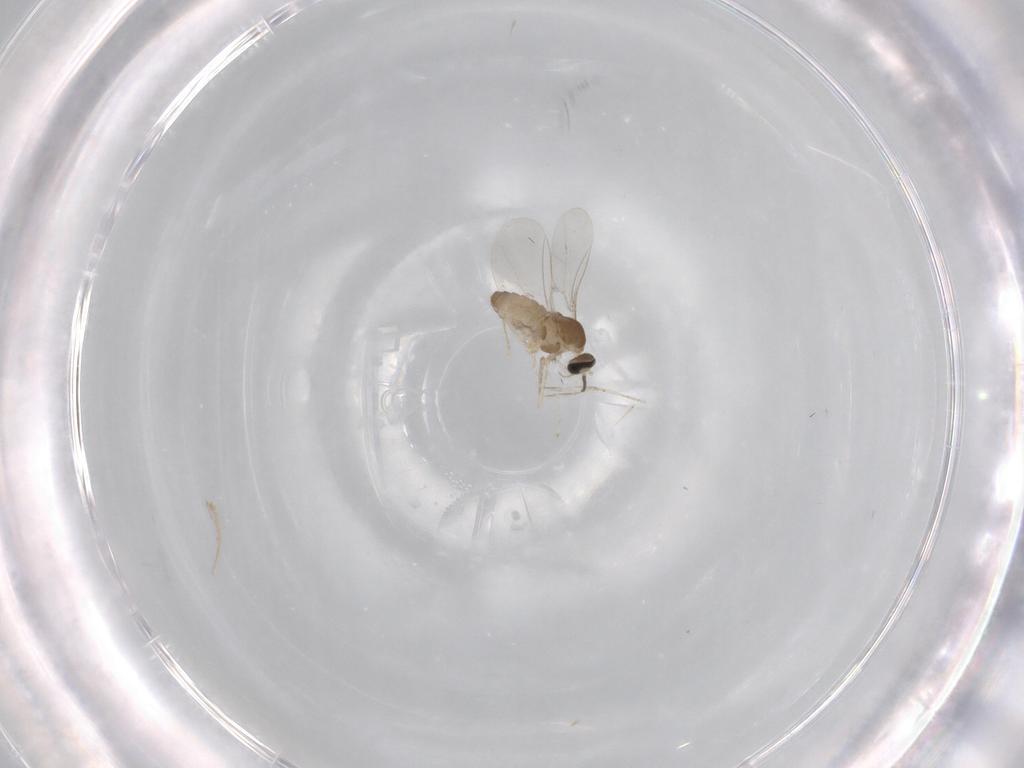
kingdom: Animalia
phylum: Arthropoda
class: Insecta
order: Diptera
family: Cecidomyiidae
